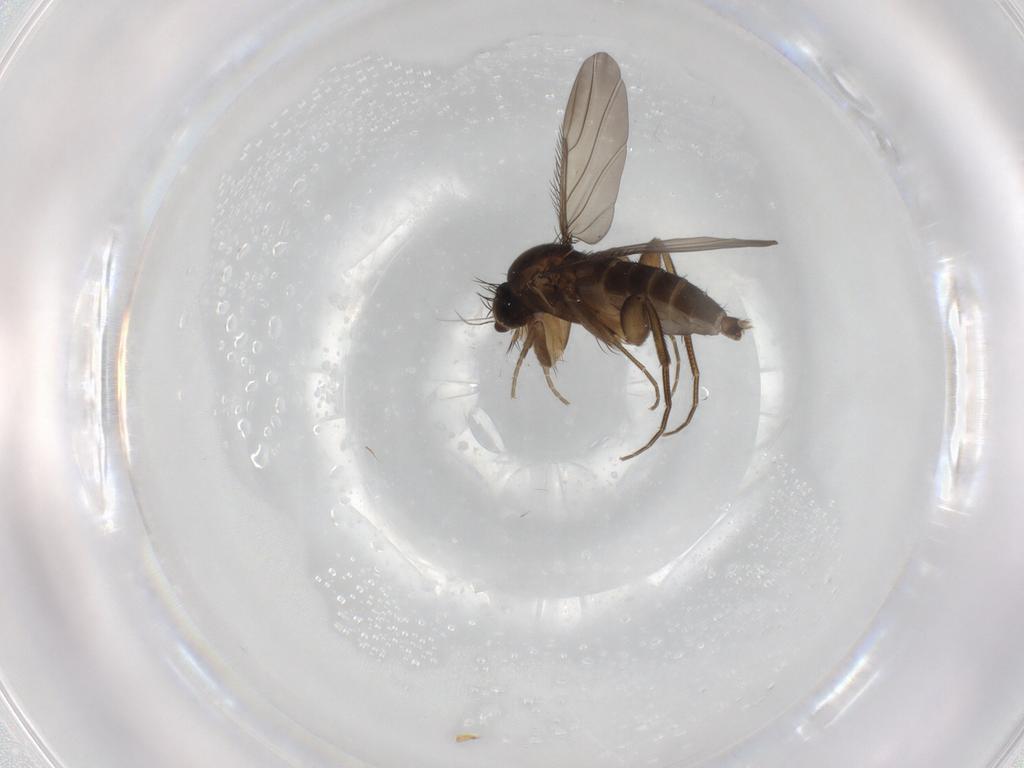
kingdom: Animalia
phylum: Arthropoda
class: Insecta
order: Diptera
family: Phoridae
